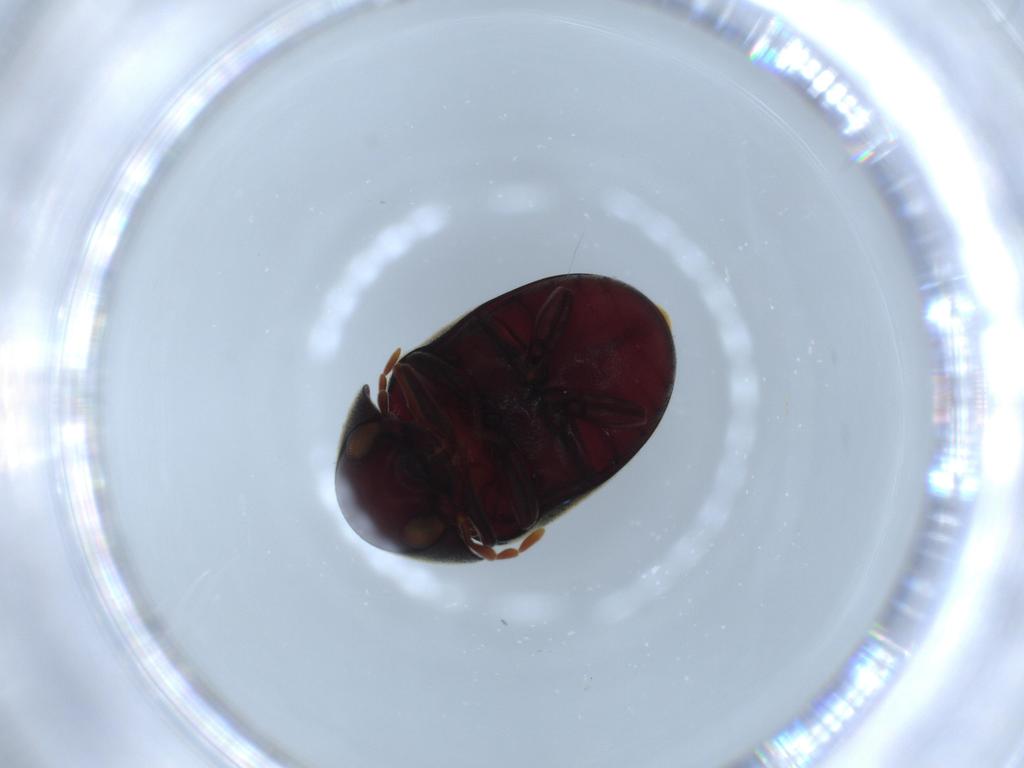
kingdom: Animalia
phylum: Arthropoda
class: Insecta
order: Coleoptera
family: Ptinidae
